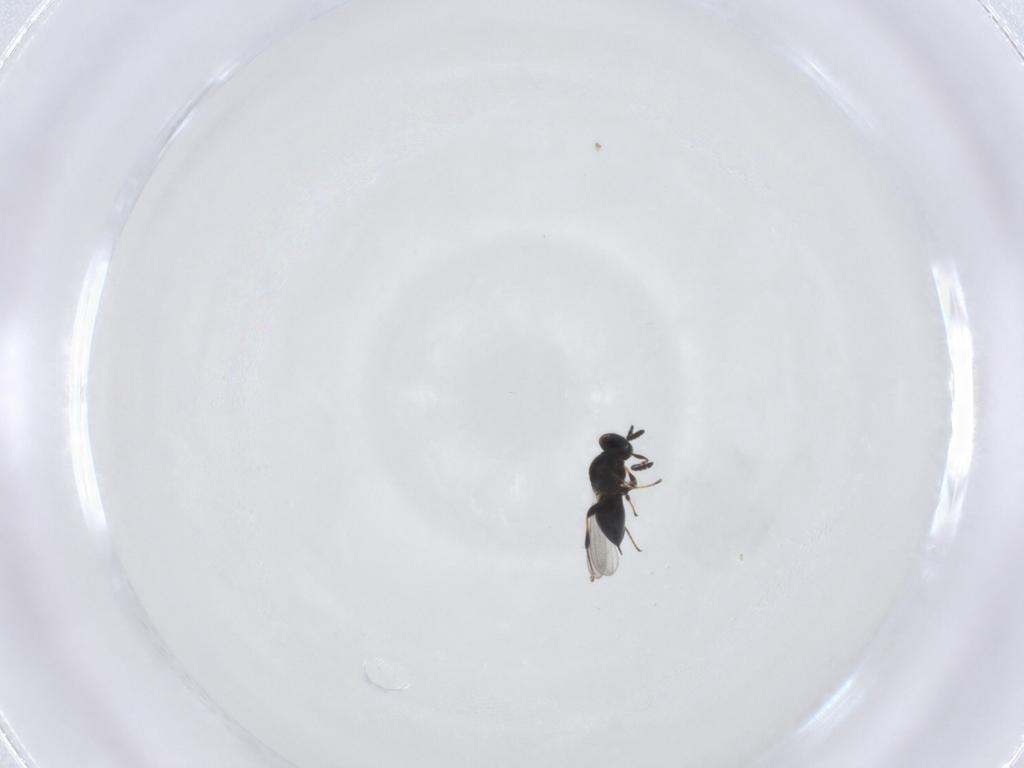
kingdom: Animalia
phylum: Arthropoda
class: Insecta
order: Hymenoptera
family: Platygastridae
